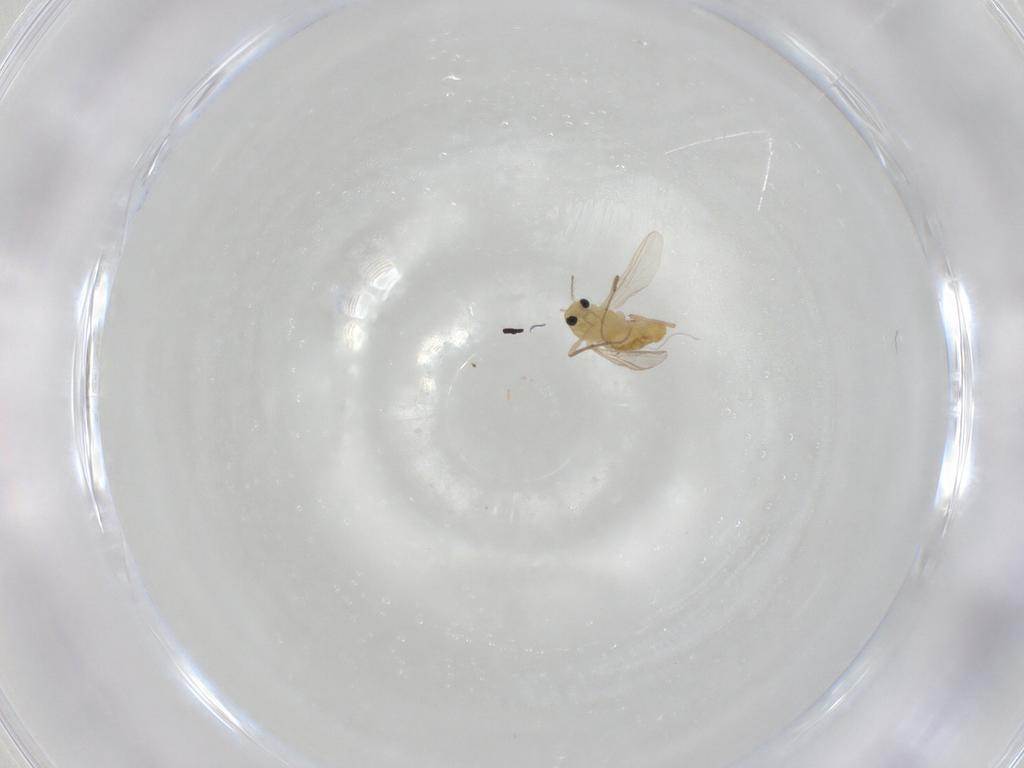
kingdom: Animalia
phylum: Arthropoda
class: Insecta
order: Diptera
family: Chironomidae
